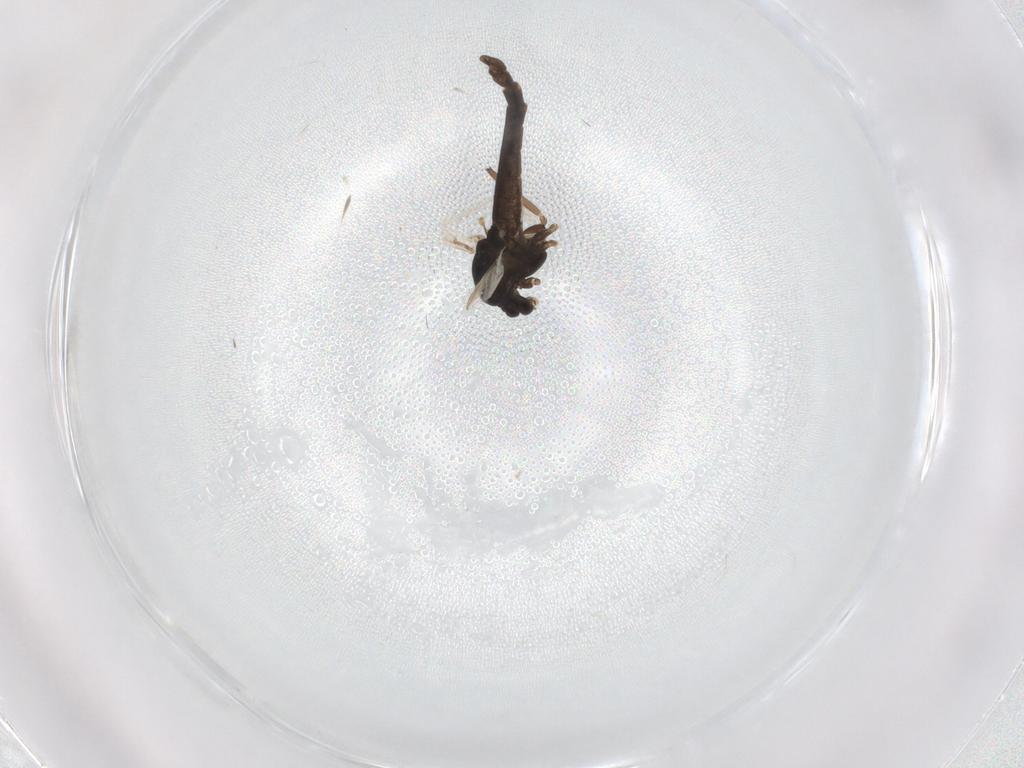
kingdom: Animalia
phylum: Arthropoda
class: Insecta
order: Diptera
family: Chironomidae
